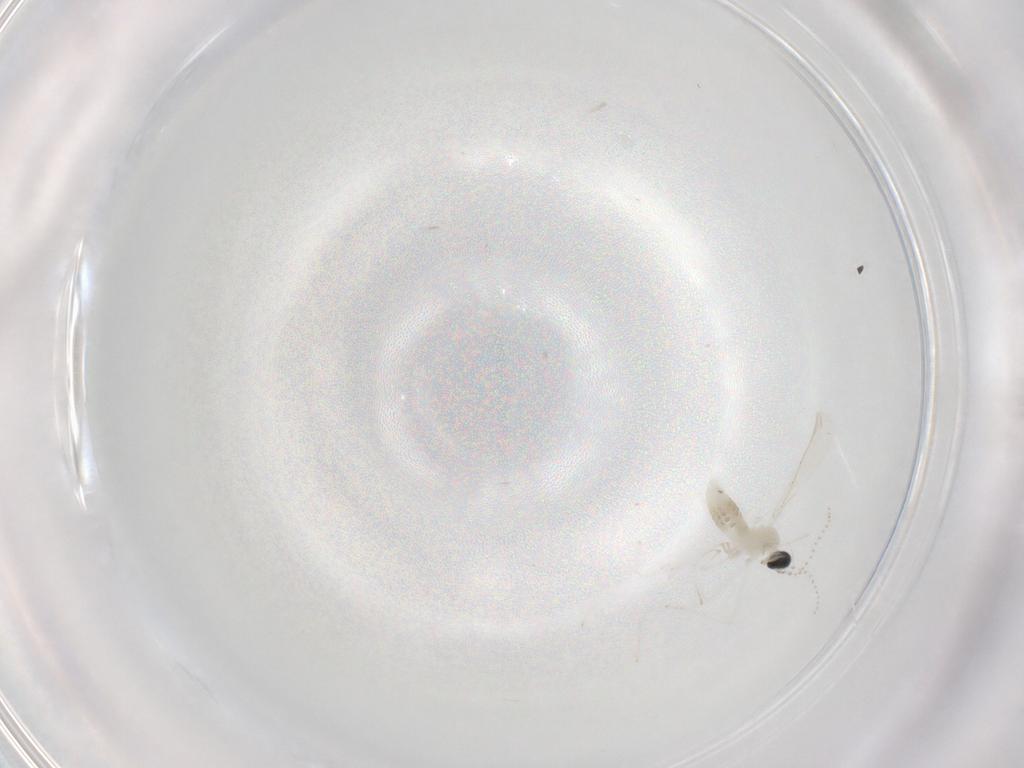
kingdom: Animalia
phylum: Arthropoda
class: Insecta
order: Diptera
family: Cecidomyiidae
